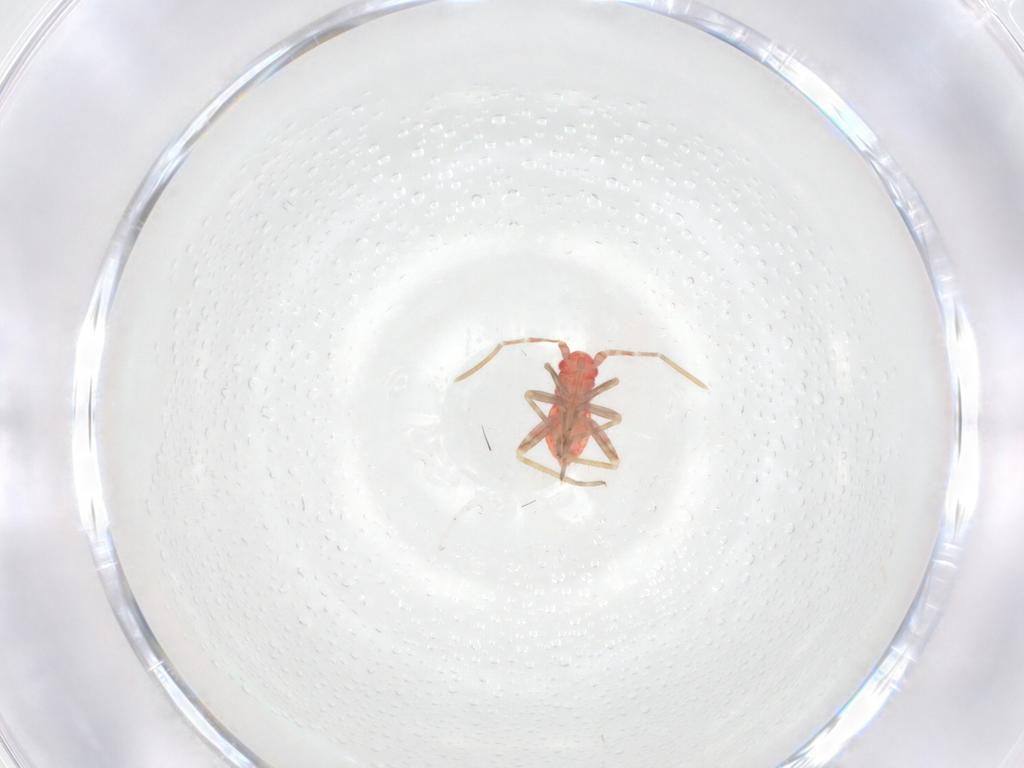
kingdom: Animalia
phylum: Arthropoda
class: Insecta
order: Hemiptera
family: Miridae
